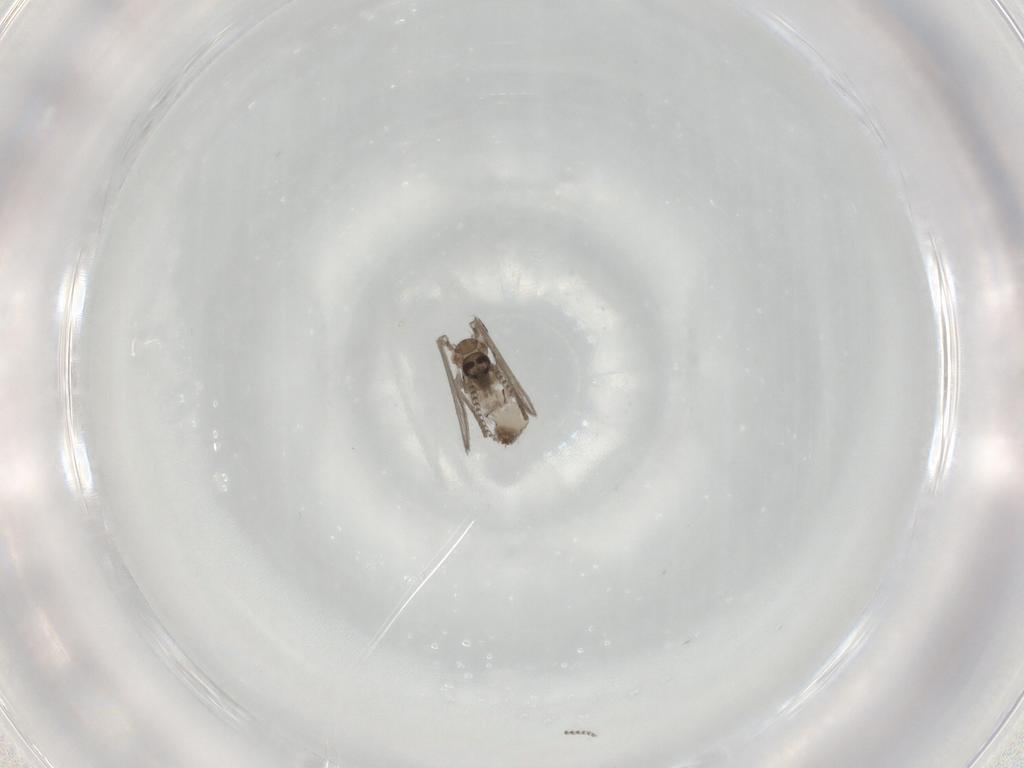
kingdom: Animalia
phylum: Arthropoda
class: Insecta
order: Diptera
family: Psychodidae
